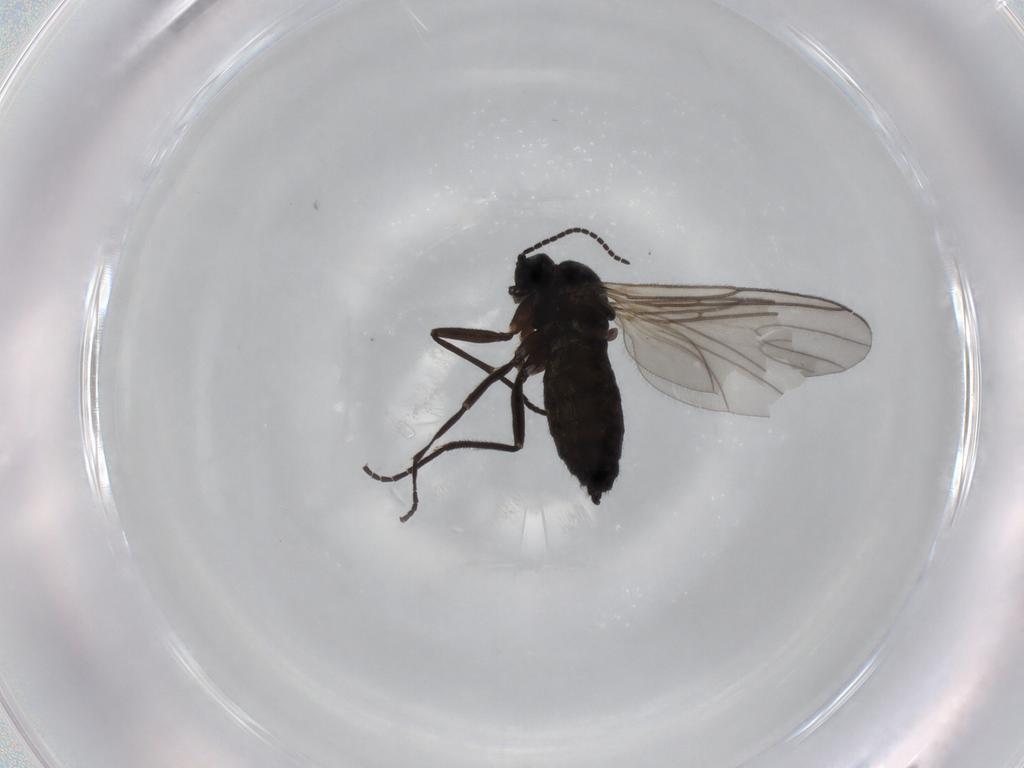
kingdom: Animalia
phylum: Arthropoda
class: Insecta
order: Diptera
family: Sciaridae
